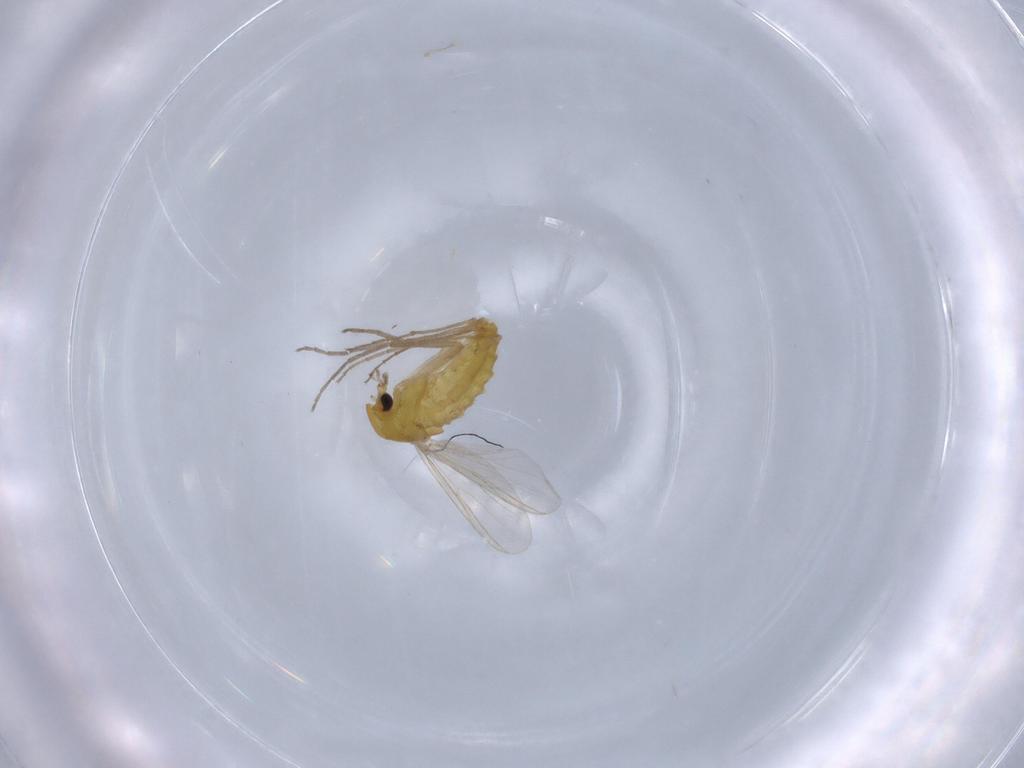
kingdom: Animalia
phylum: Arthropoda
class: Insecta
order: Diptera
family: Chironomidae
